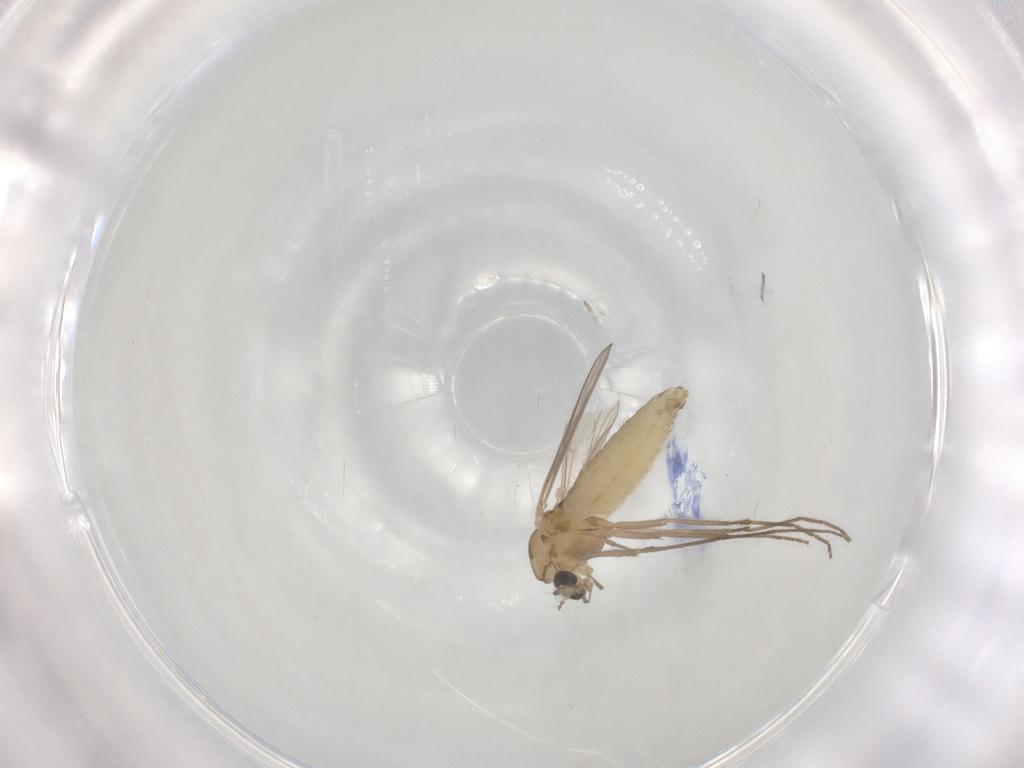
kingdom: Animalia
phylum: Arthropoda
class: Insecta
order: Diptera
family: Chironomidae
